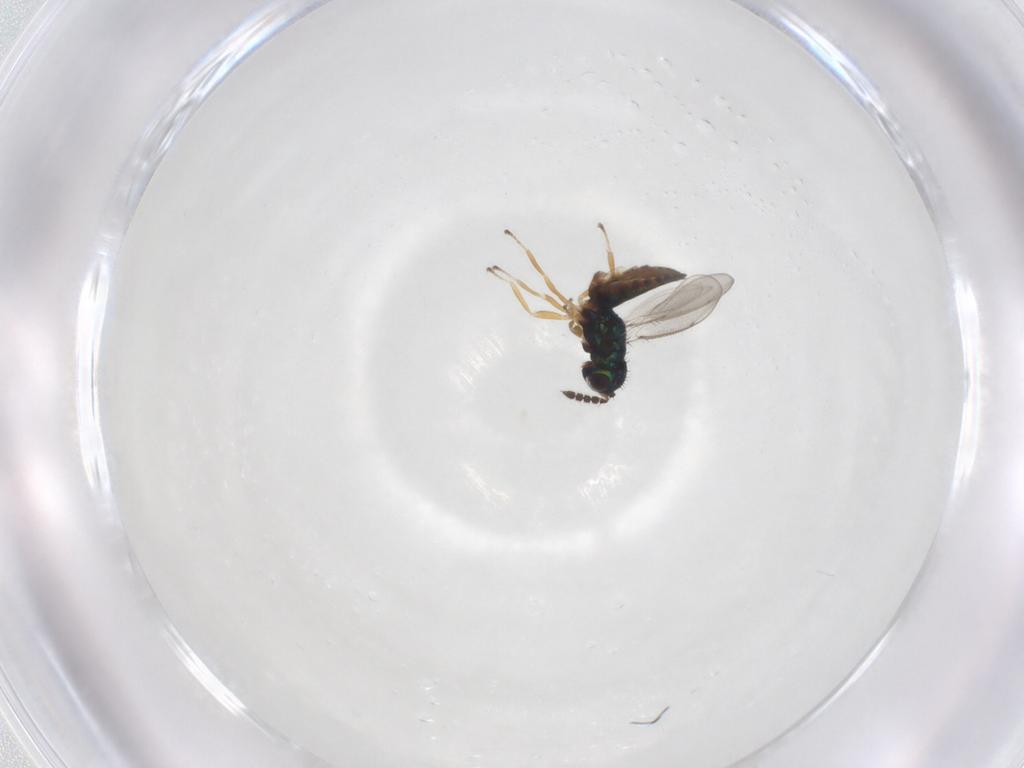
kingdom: Animalia
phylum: Arthropoda
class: Insecta
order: Hymenoptera
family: Eulophidae
